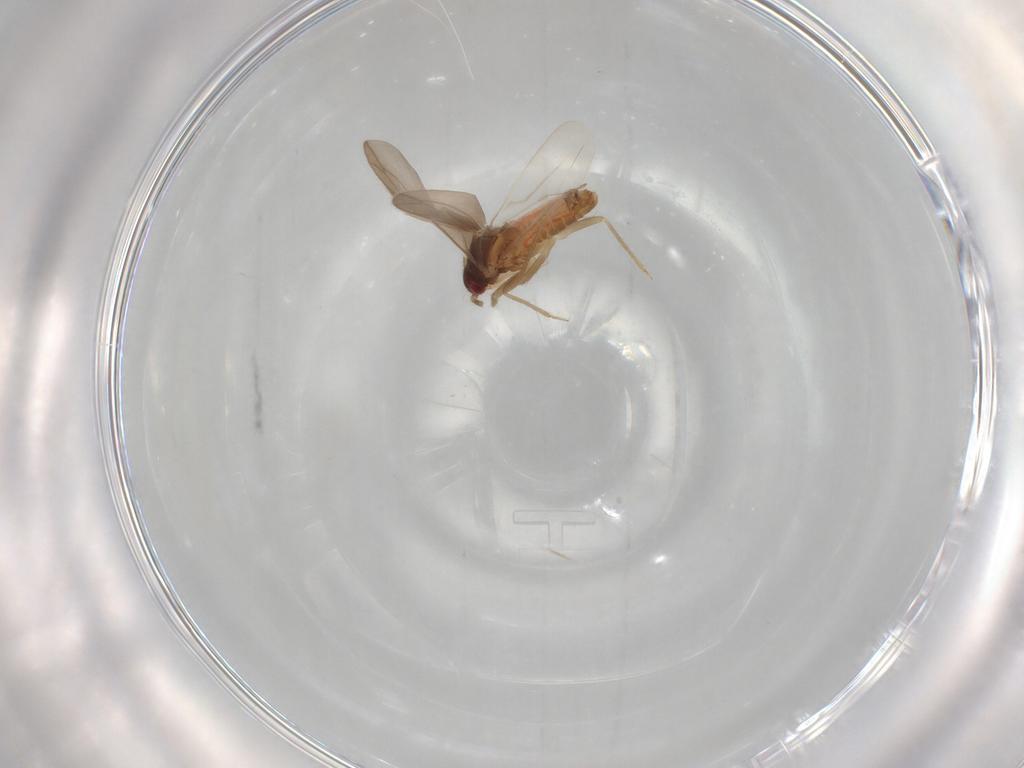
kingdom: Animalia
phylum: Arthropoda
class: Insecta
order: Hemiptera
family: Ceratocombidae
